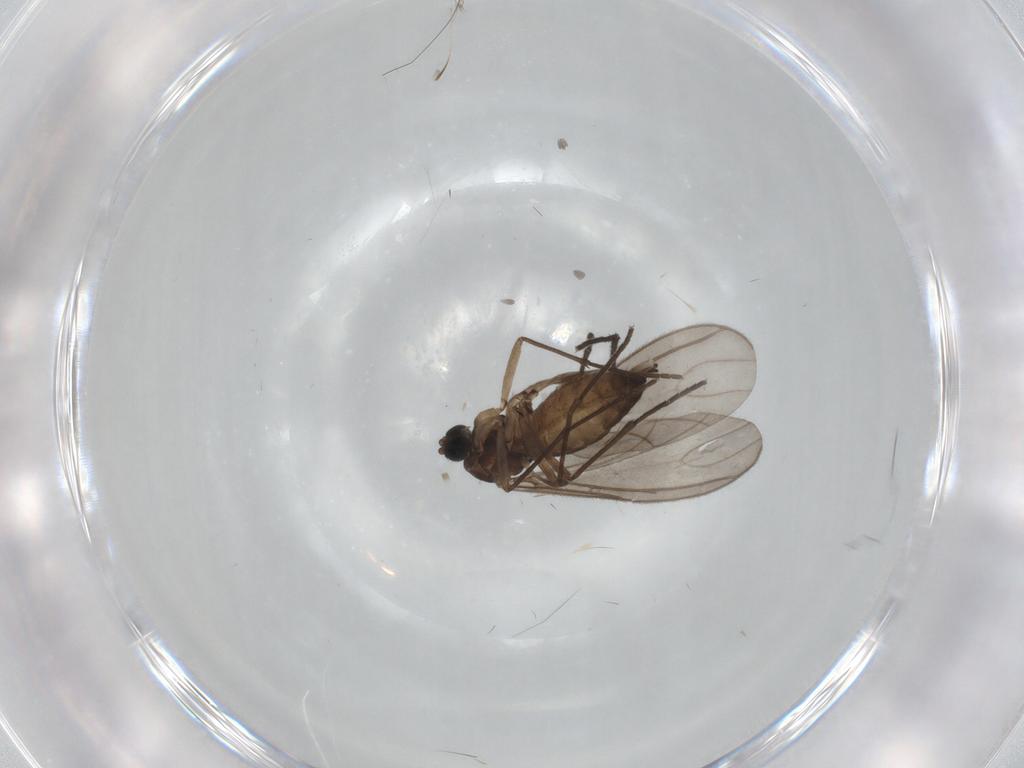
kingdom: Animalia
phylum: Arthropoda
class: Insecta
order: Diptera
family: Sciaridae
